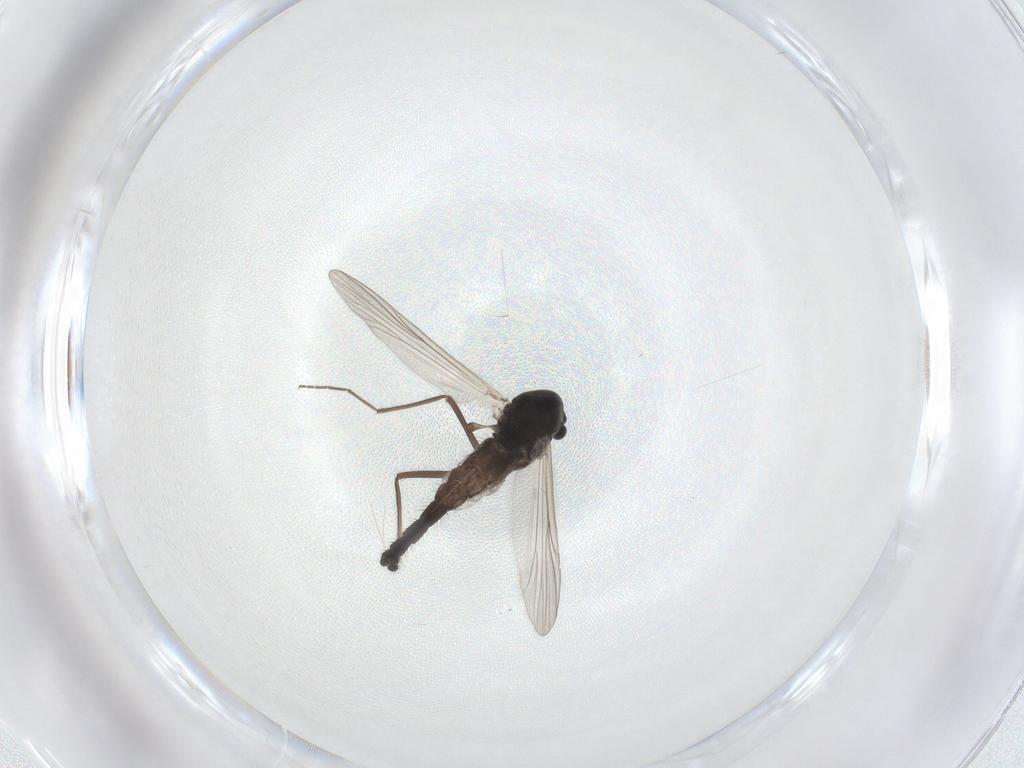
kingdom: Animalia
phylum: Arthropoda
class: Insecta
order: Diptera
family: Chironomidae
